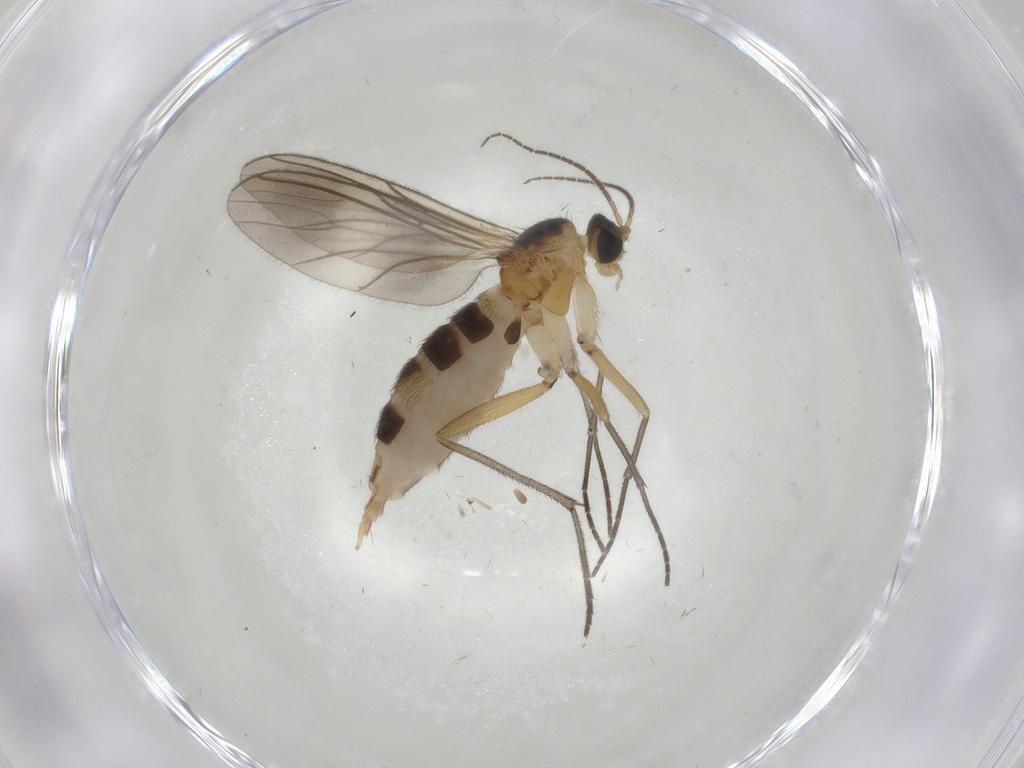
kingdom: Animalia
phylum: Arthropoda
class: Insecta
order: Diptera
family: Sciaridae
